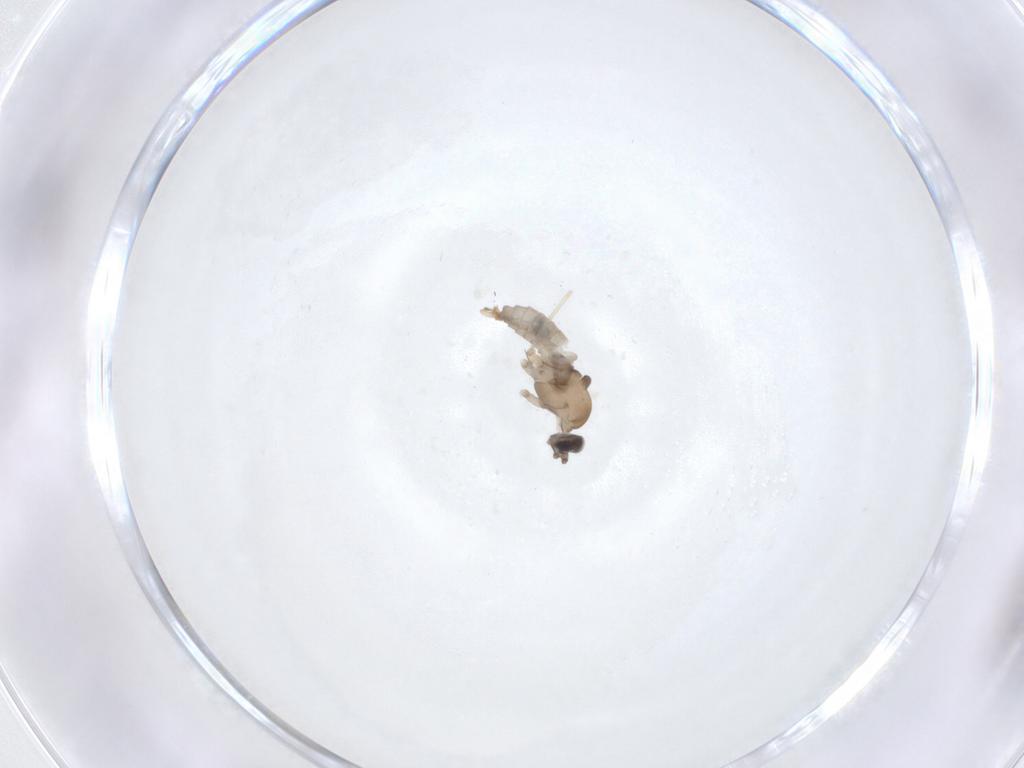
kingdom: Animalia
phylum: Arthropoda
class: Insecta
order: Diptera
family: Cecidomyiidae
